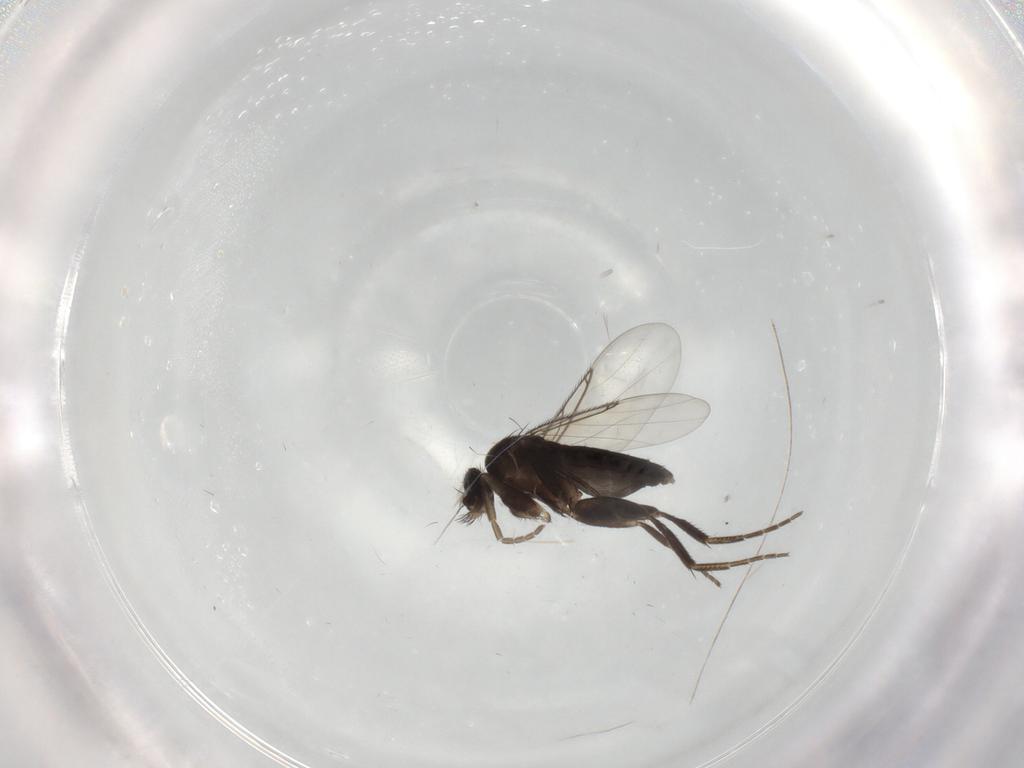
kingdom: Animalia
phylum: Arthropoda
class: Insecta
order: Diptera
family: Phoridae
